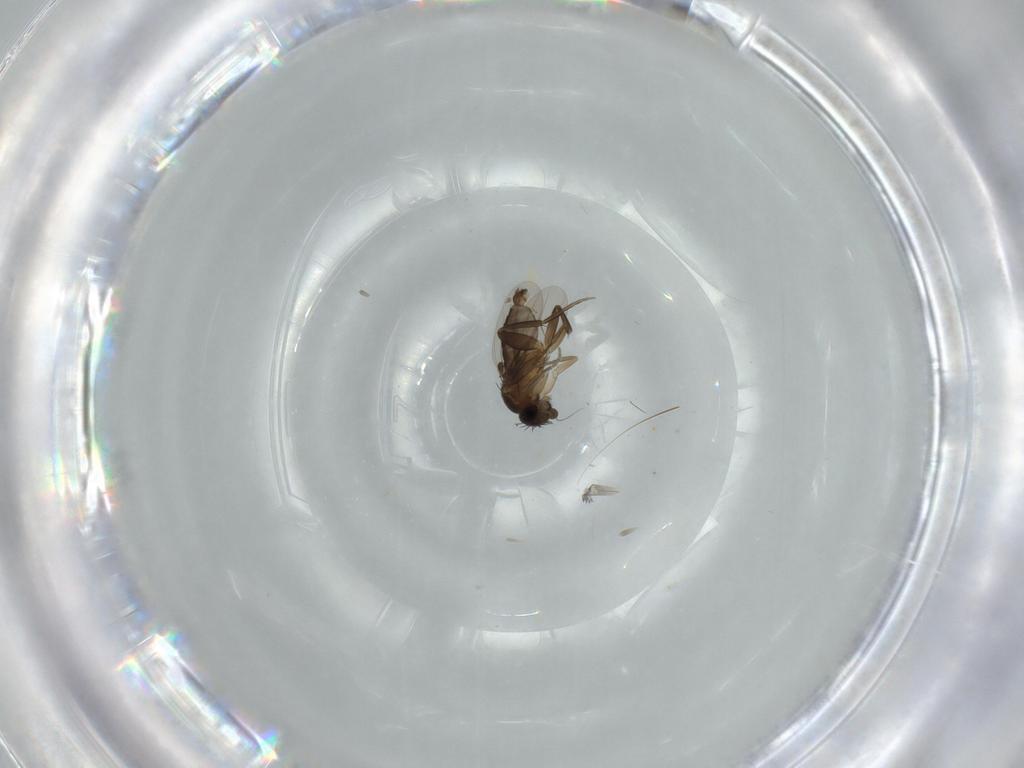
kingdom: Animalia
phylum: Arthropoda
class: Insecta
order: Diptera
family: Phoridae
